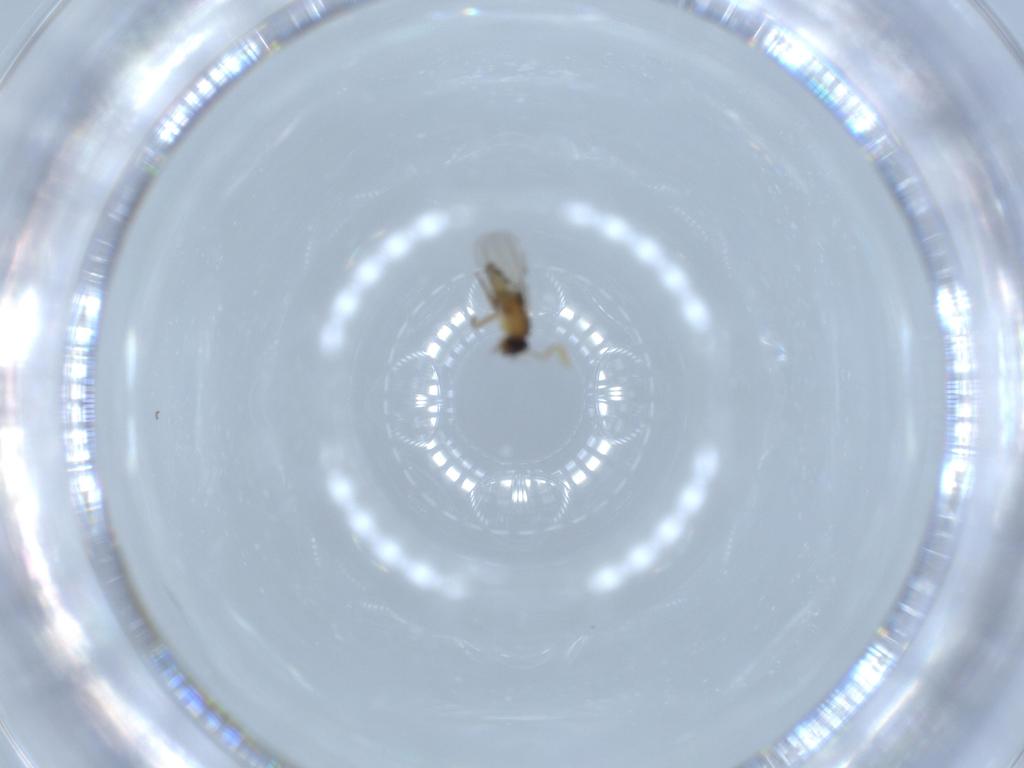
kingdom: Animalia
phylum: Arthropoda
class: Insecta
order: Diptera
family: Phoridae
